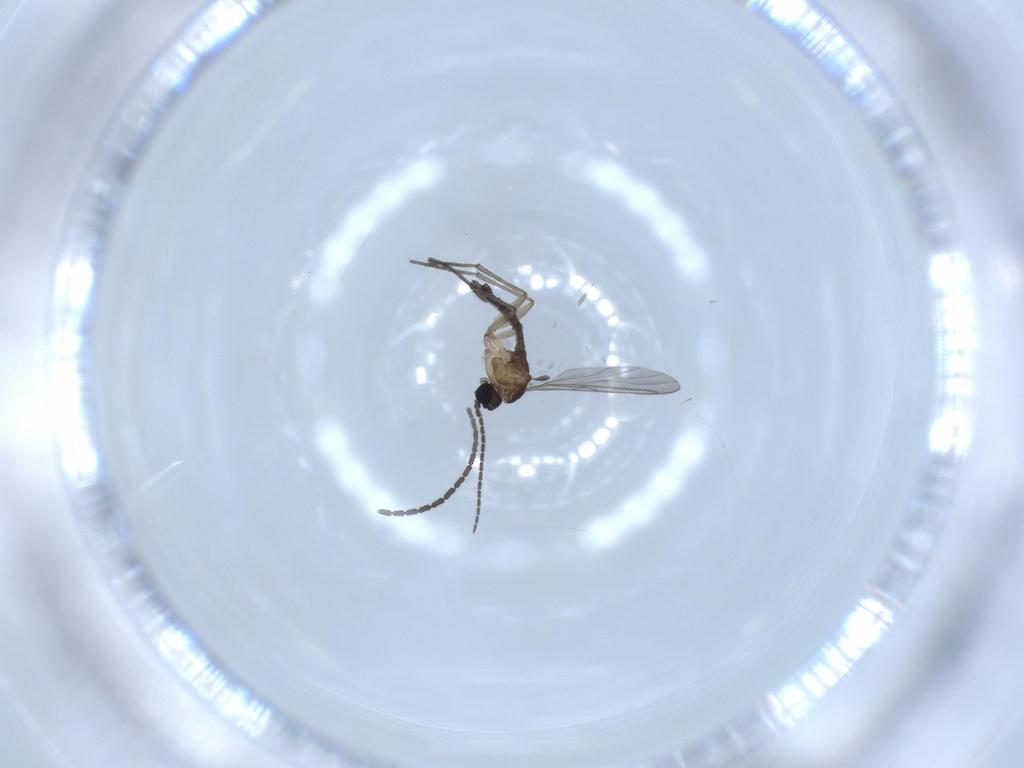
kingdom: Animalia
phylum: Arthropoda
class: Insecta
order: Diptera
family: Sciaridae
